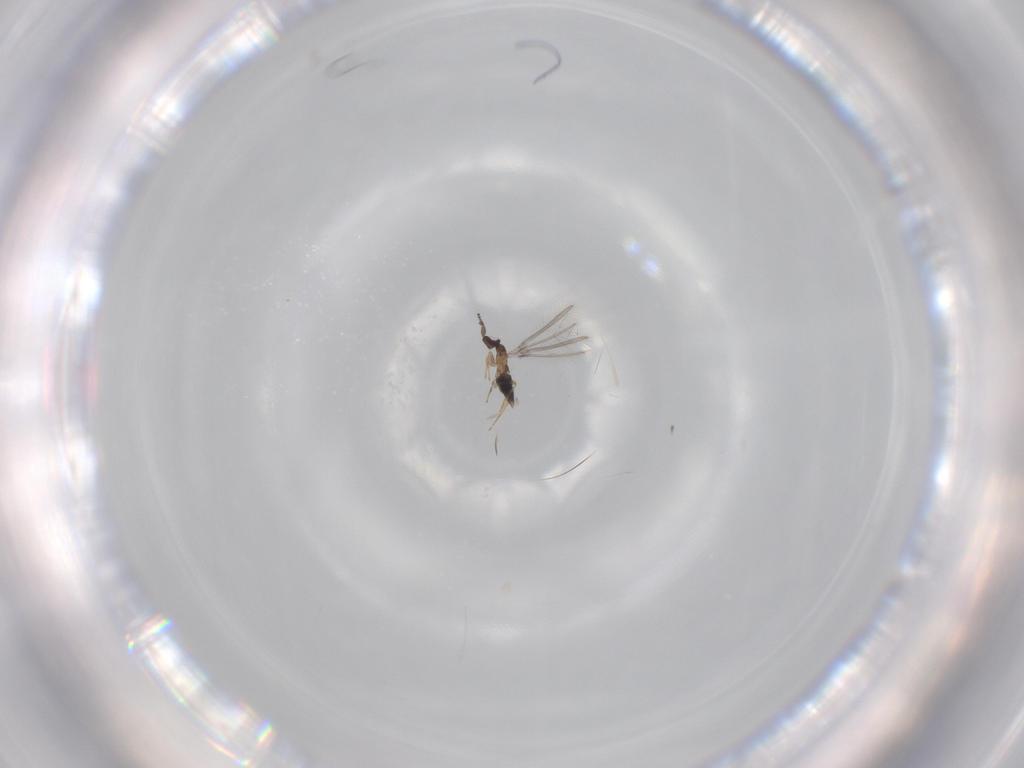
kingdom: Animalia
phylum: Arthropoda
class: Insecta
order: Hymenoptera
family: Mymaridae
